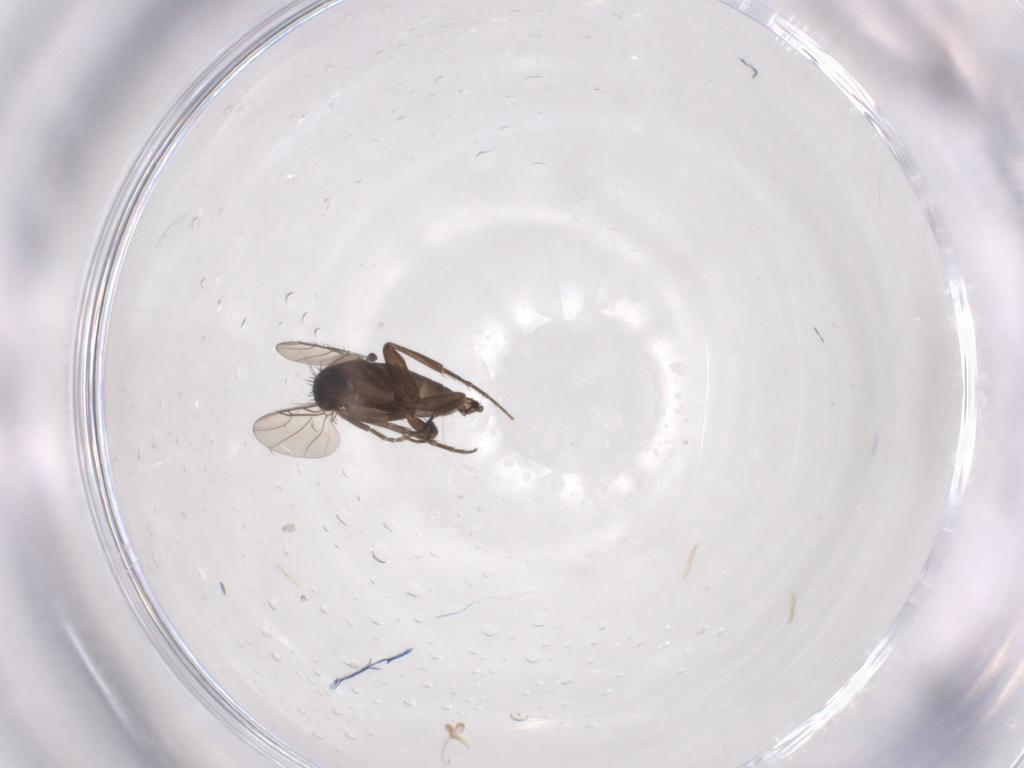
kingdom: Animalia
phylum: Arthropoda
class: Insecta
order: Diptera
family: Phoridae
